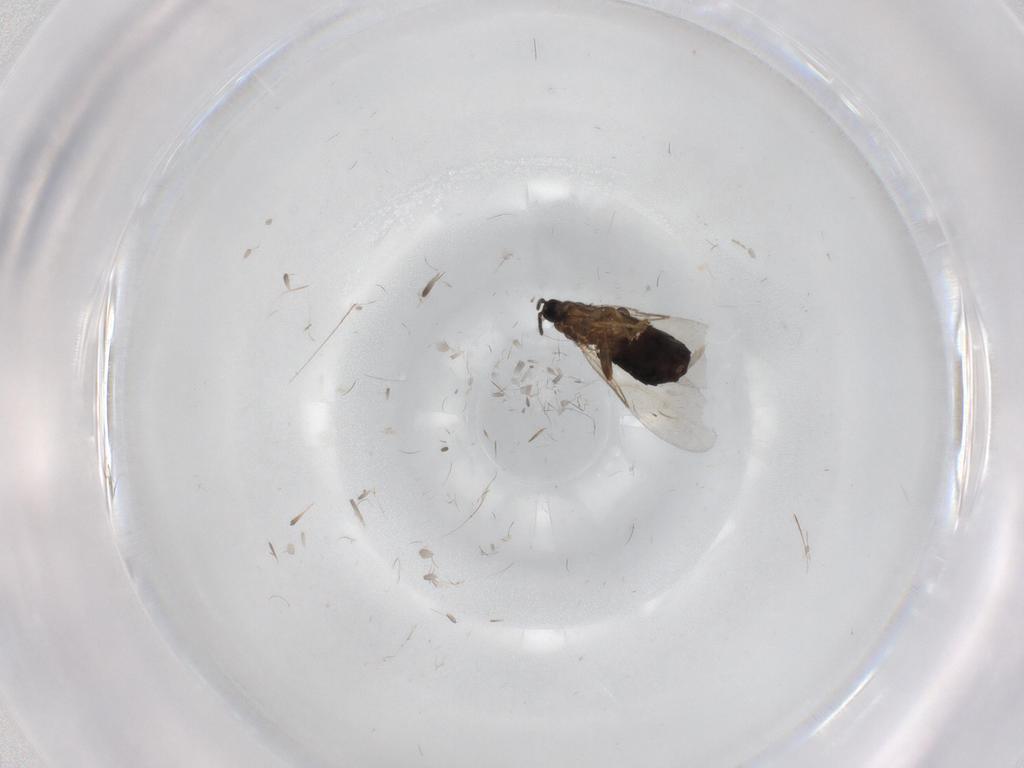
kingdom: Animalia
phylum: Arthropoda
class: Insecta
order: Diptera
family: Scatopsidae
